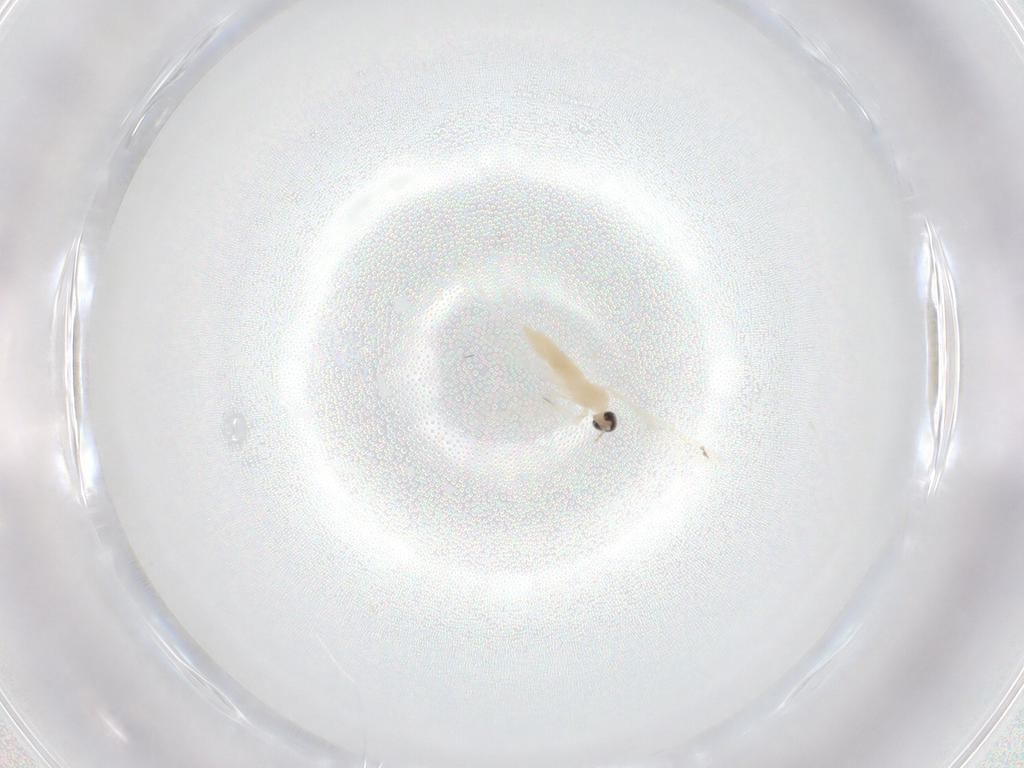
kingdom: Animalia
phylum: Arthropoda
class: Insecta
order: Diptera
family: Cecidomyiidae
